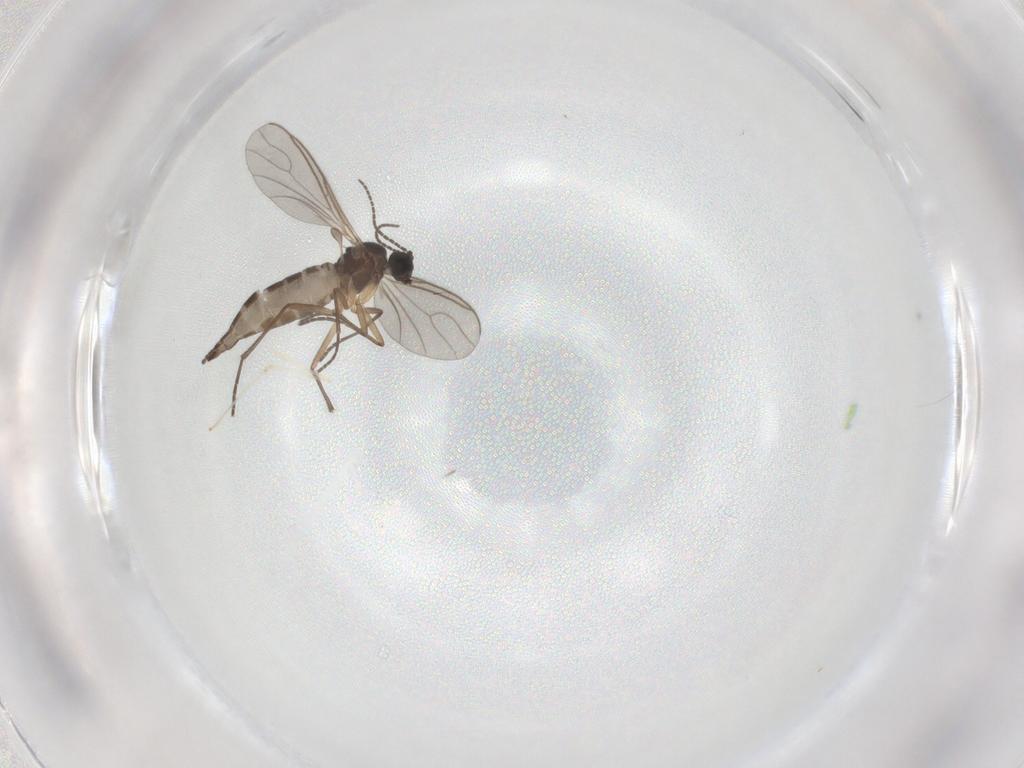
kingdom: Animalia
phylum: Arthropoda
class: Insecta
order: Diptera
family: Sciaridae
